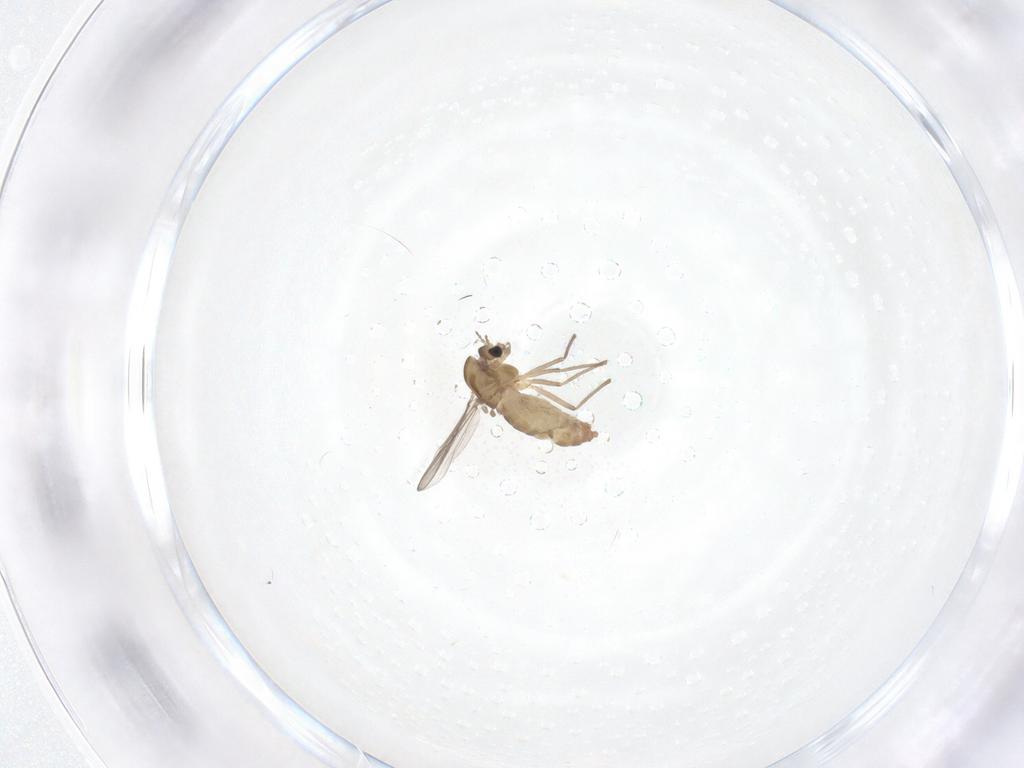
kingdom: Animalia
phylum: Arthropoda
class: Insecta
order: Diptera
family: Chironomidae
